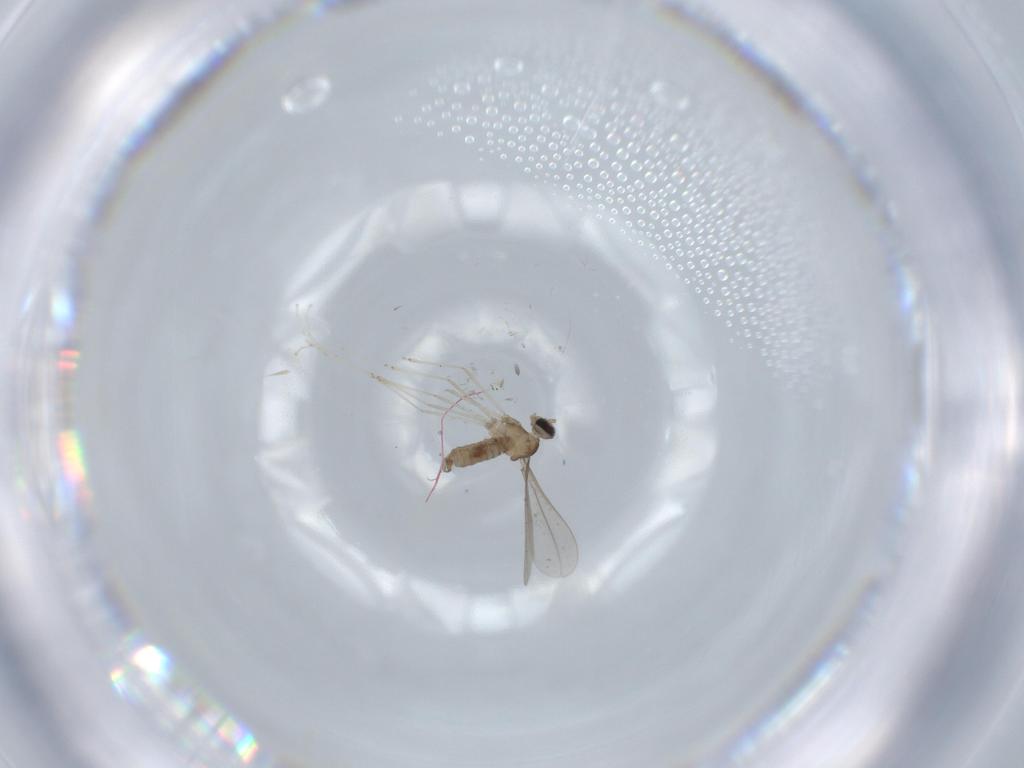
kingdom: Animalia
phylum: Arthropoda
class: Insecta
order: Diptera
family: Cecidomyiidae
